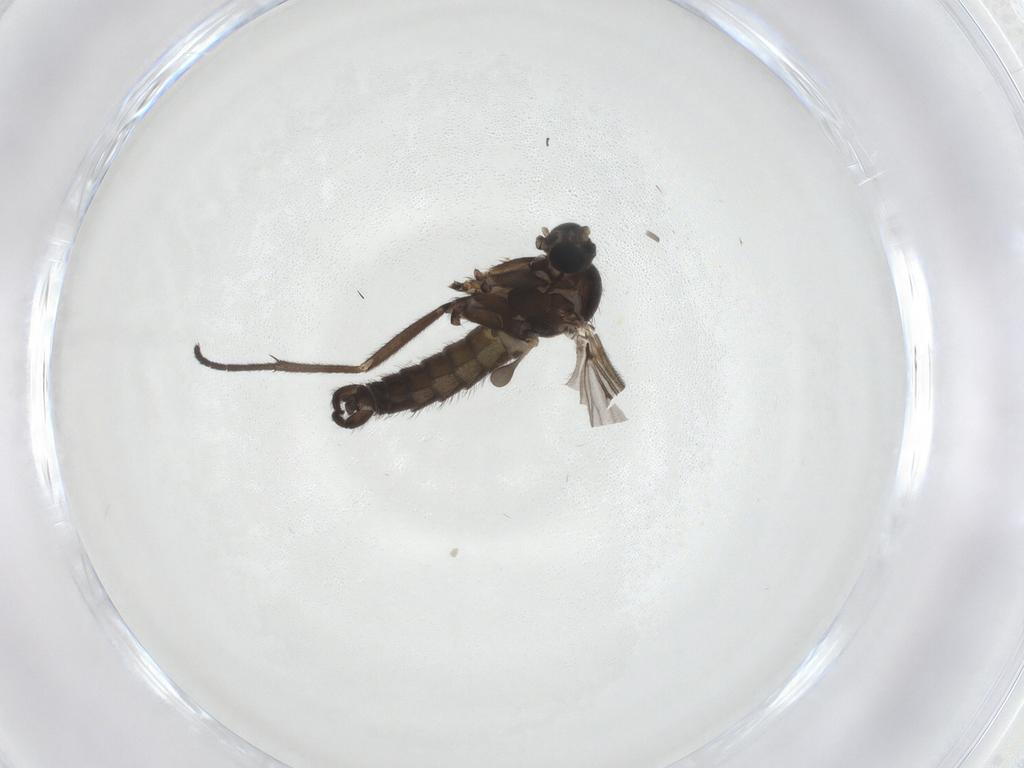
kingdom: Animalia
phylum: Arthropoda
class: Insecta
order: Diptera
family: Sciaridae
